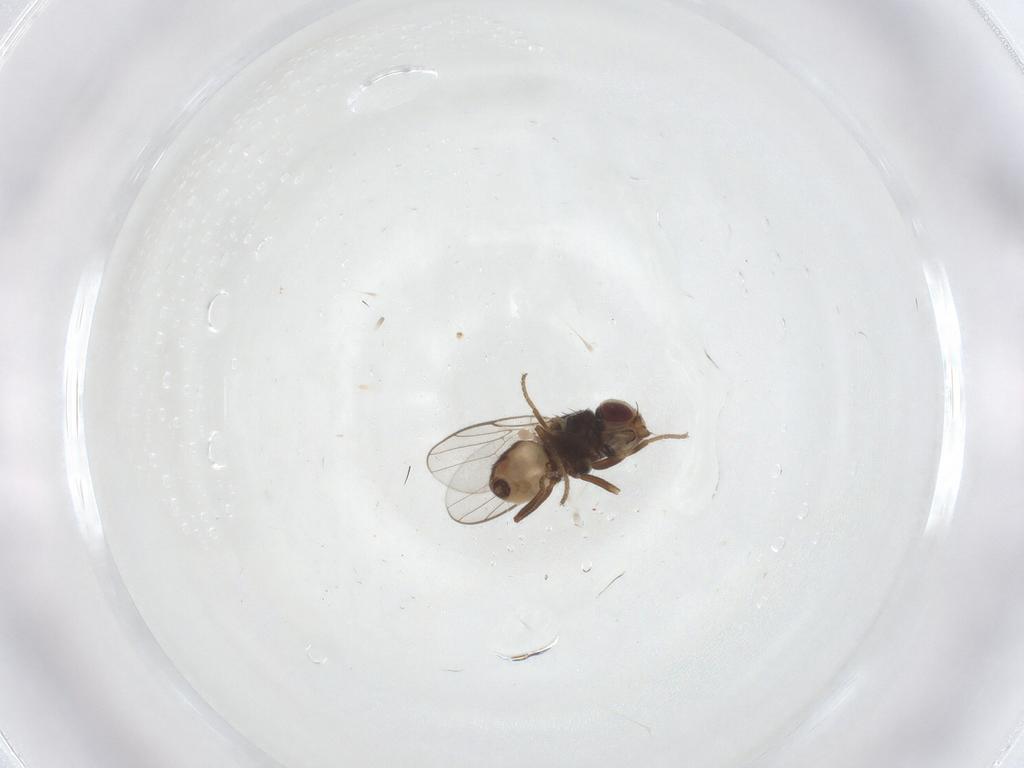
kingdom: Animalia
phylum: Arthropoda
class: Insecta
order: Diptera
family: Chloropidae
